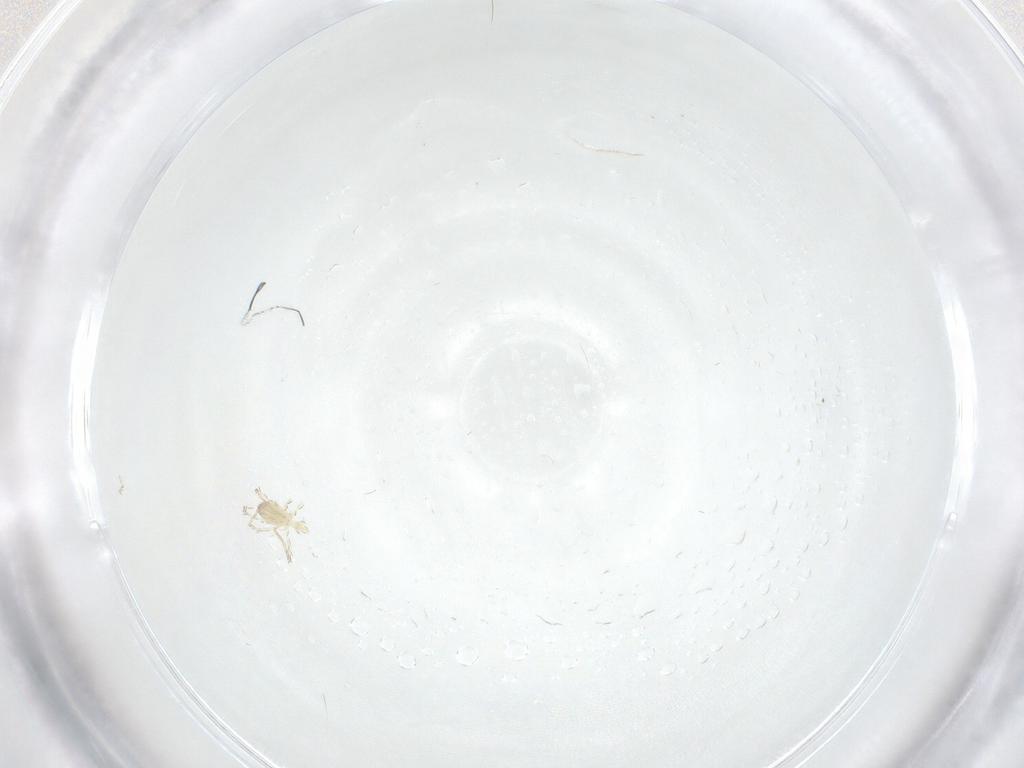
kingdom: Animalia
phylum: Arthropoda
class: Arachnida
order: Trombidiformes
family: Erythraeidae
